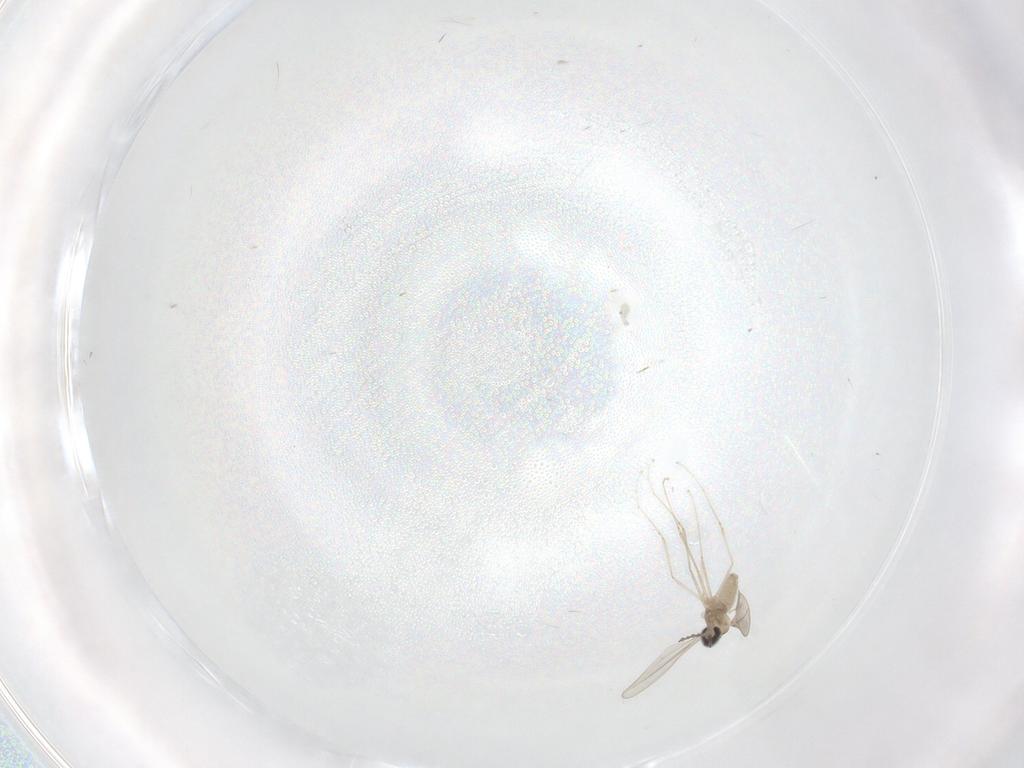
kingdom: Animalia
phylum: Arthropoda
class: Insecta
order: Diptera
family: Cecidomyiidae
